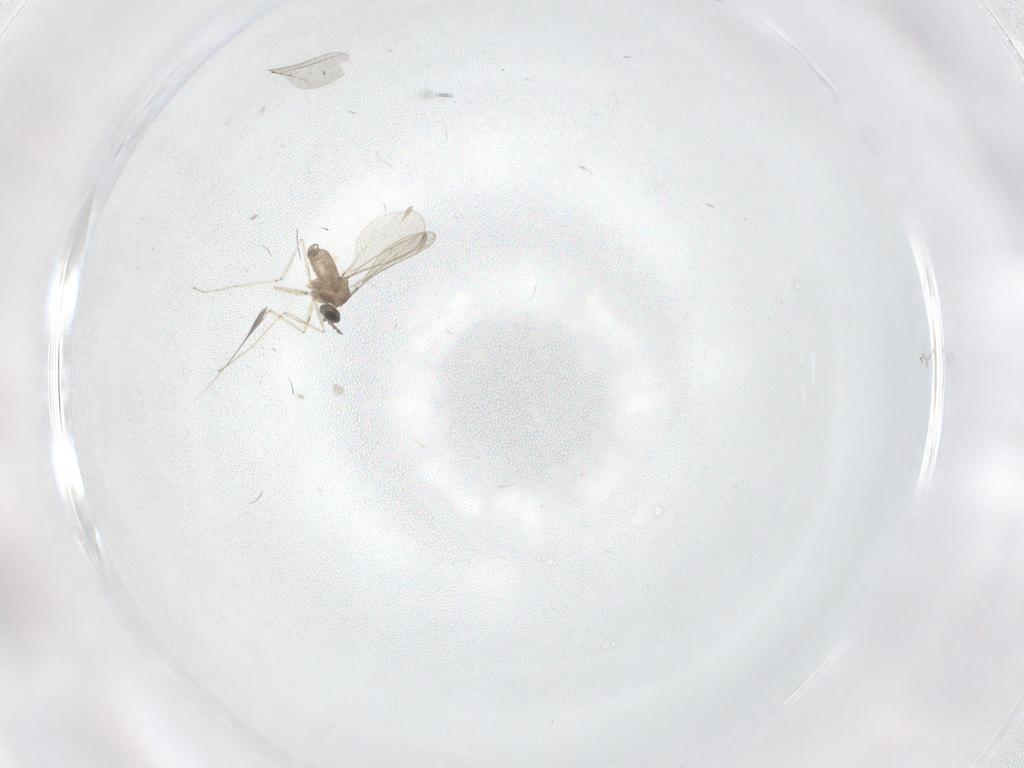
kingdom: Animalia
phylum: Arthropoda
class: Insecta
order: Diptera
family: Cecidomyiidae
